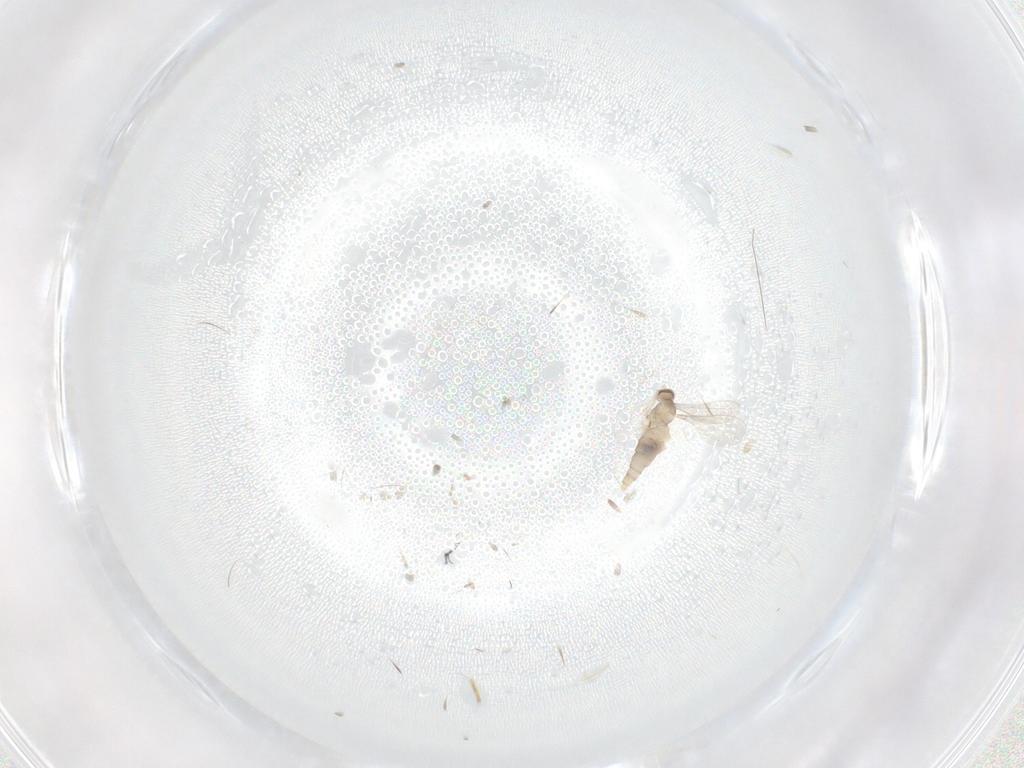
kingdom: Animalia
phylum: Arthropoda
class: Insecta
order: Diptera
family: Cecidomyiidae
